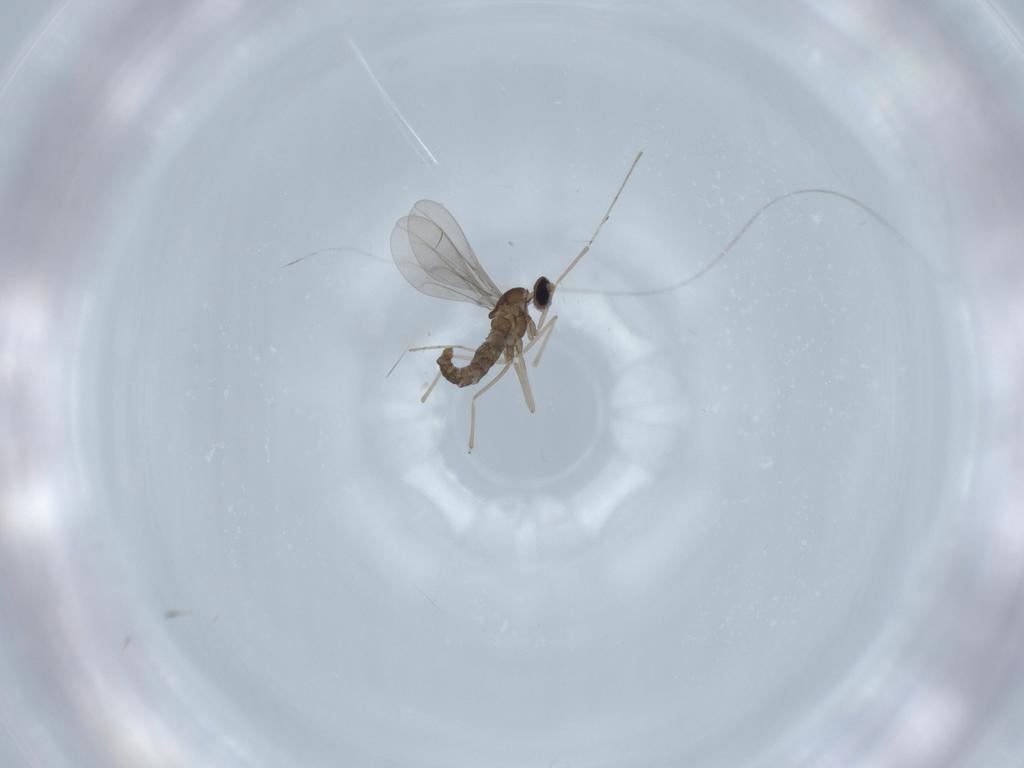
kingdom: Animalia
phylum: Arthropoda
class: Insecta
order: Diptera
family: Cecidomyiidae
